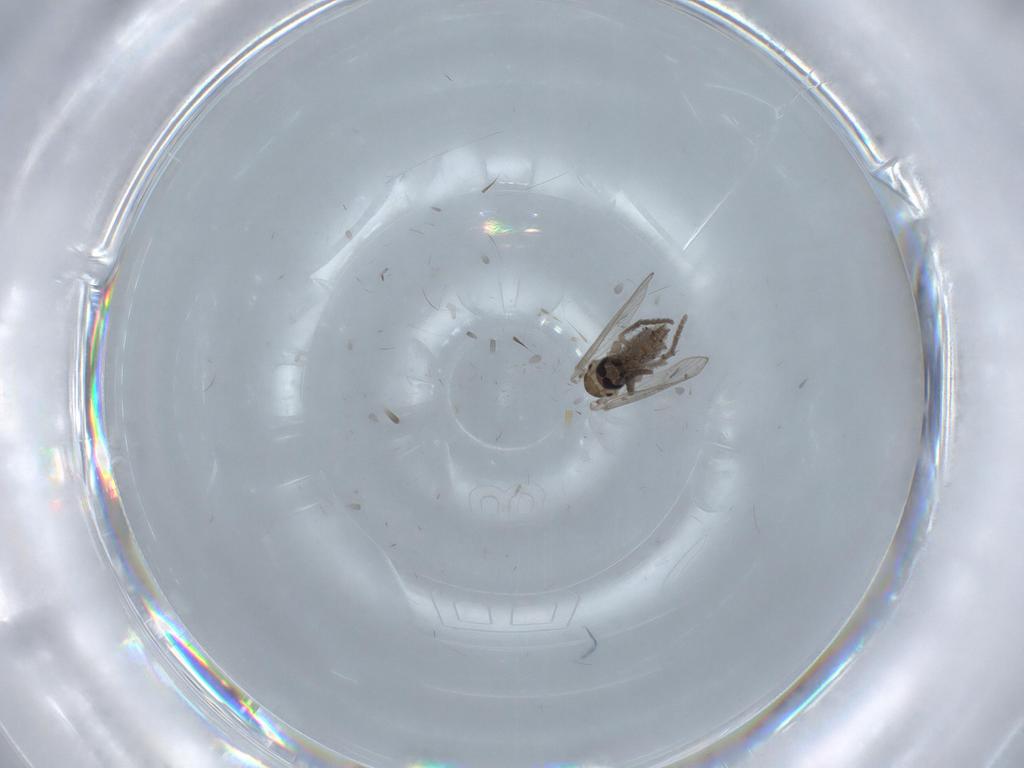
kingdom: Animalia
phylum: Arthropoda
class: Insecta
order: Diptera
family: Psychodidae
